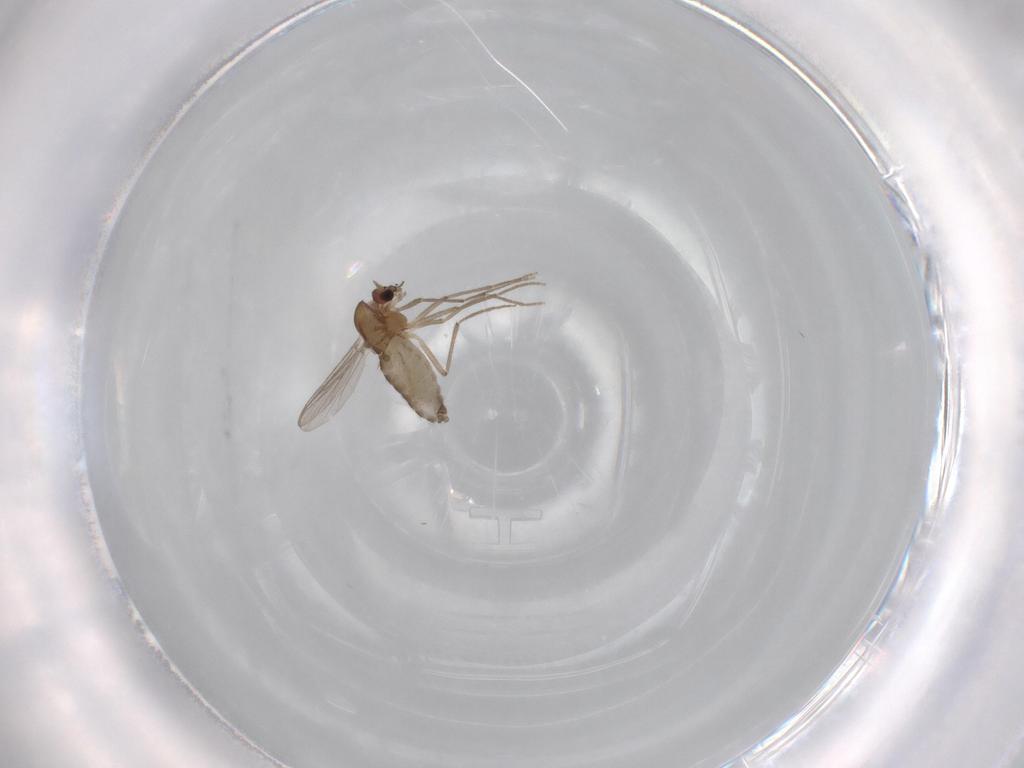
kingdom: Animalia
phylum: Arthropoda
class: Insecta
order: Diptera
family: Chironomidae
